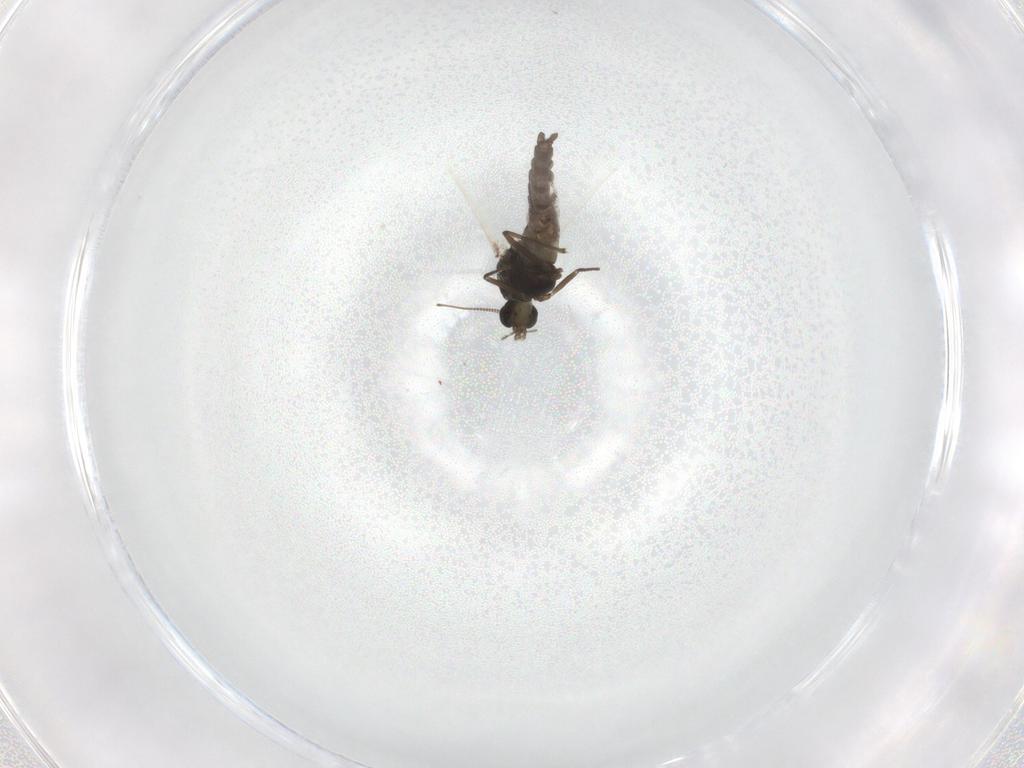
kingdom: Animalia
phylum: Arthropoda
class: Insecta
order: Diptera
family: Chironomidae
